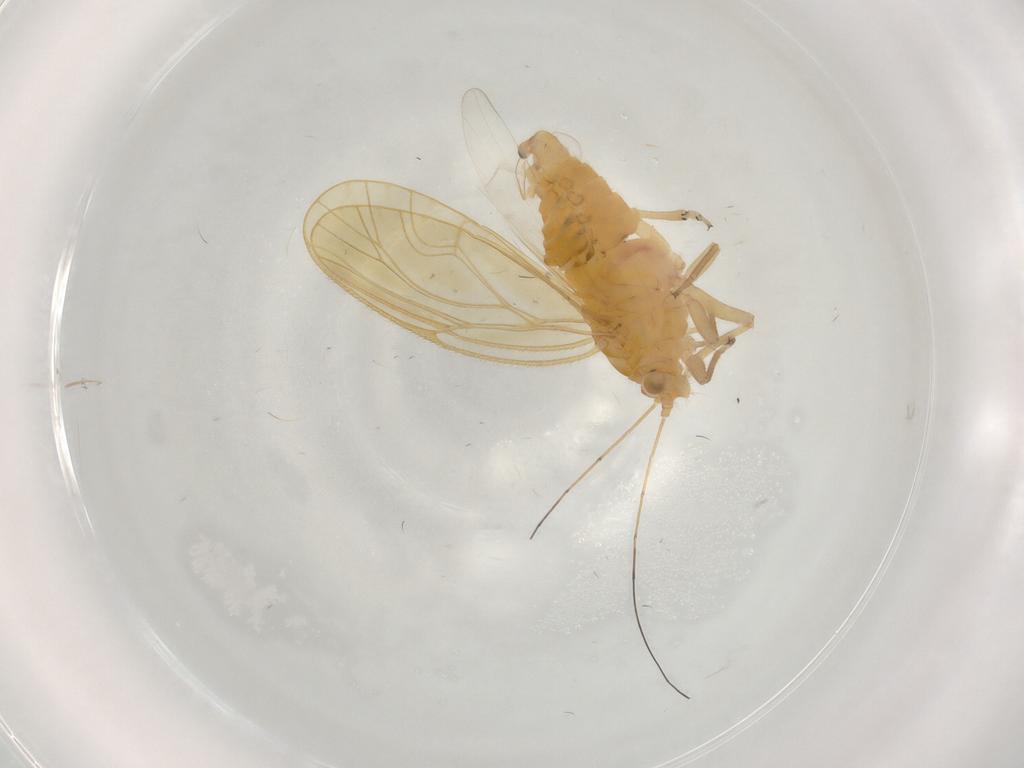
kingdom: Animalia
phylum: Arthropoda
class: Insecta
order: Hemiptera
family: Psyllidae
